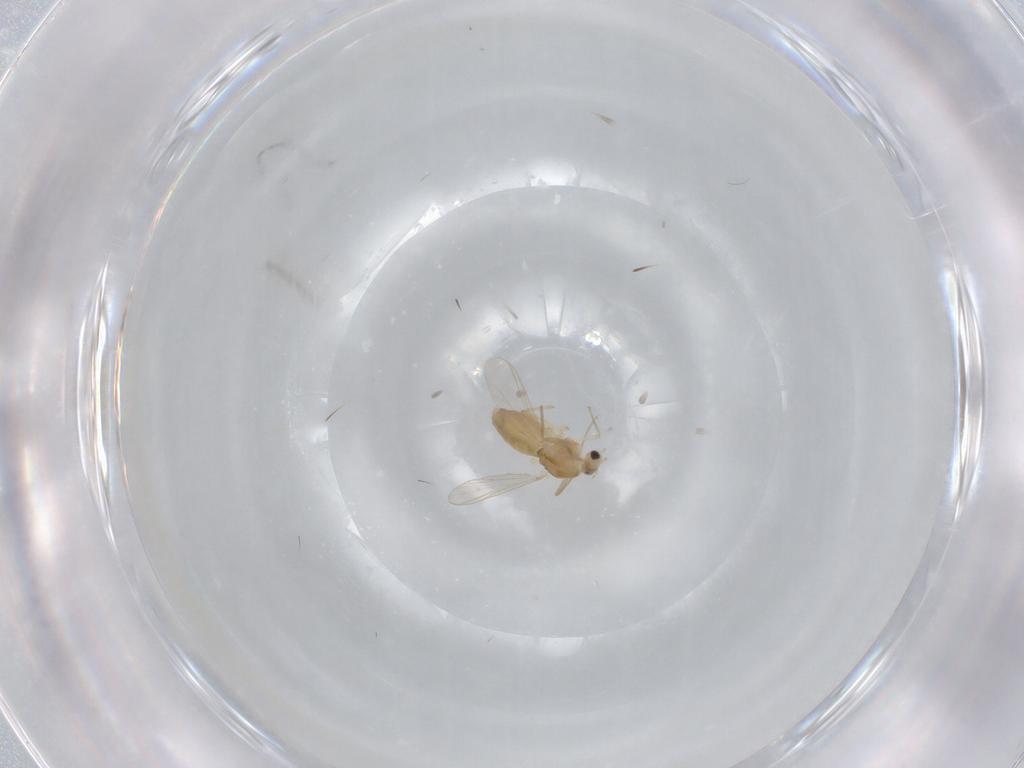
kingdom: Animalia
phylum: Arthropoda
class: Insecta
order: Diptera
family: Chironomidae
